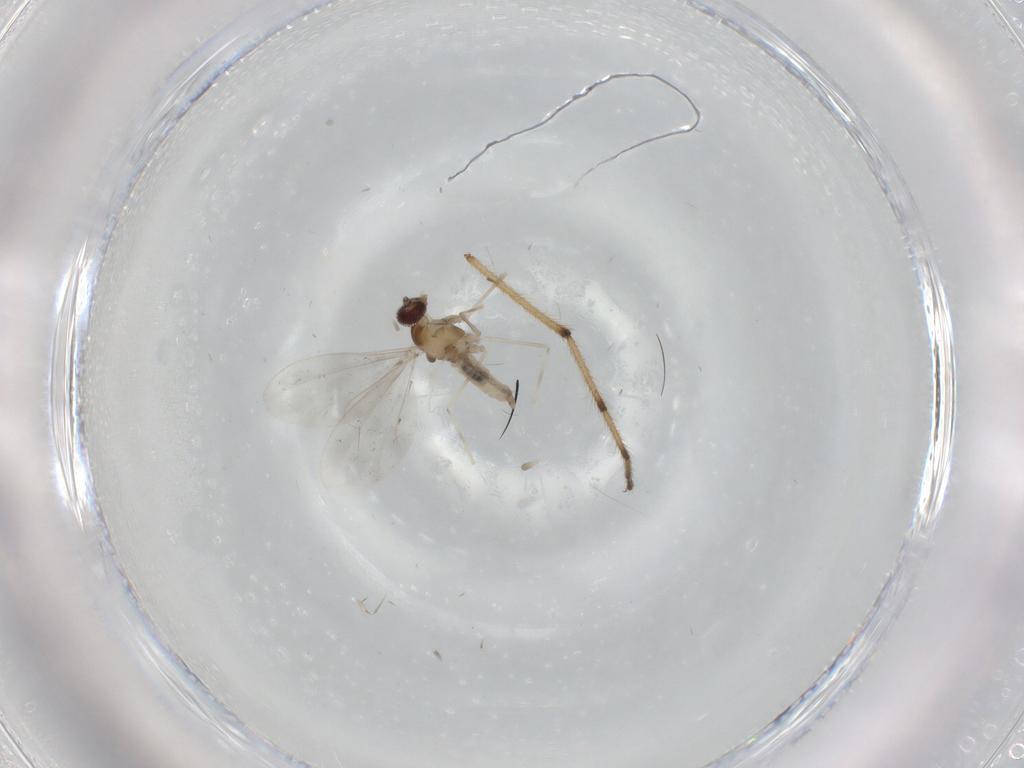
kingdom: Animalia
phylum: Arthropoda
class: Insecta
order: Diptera
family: Cecidomyiidae
